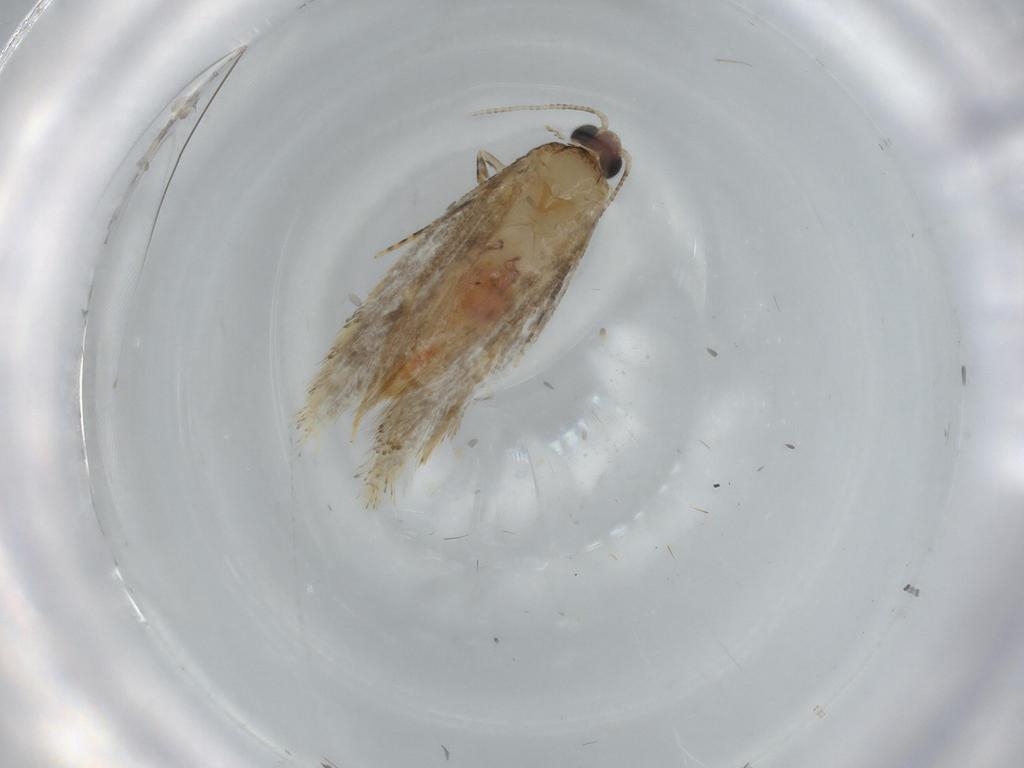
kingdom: Animalia
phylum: Arthropoda
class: Insecta
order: Lepidoptera
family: Tineidae
